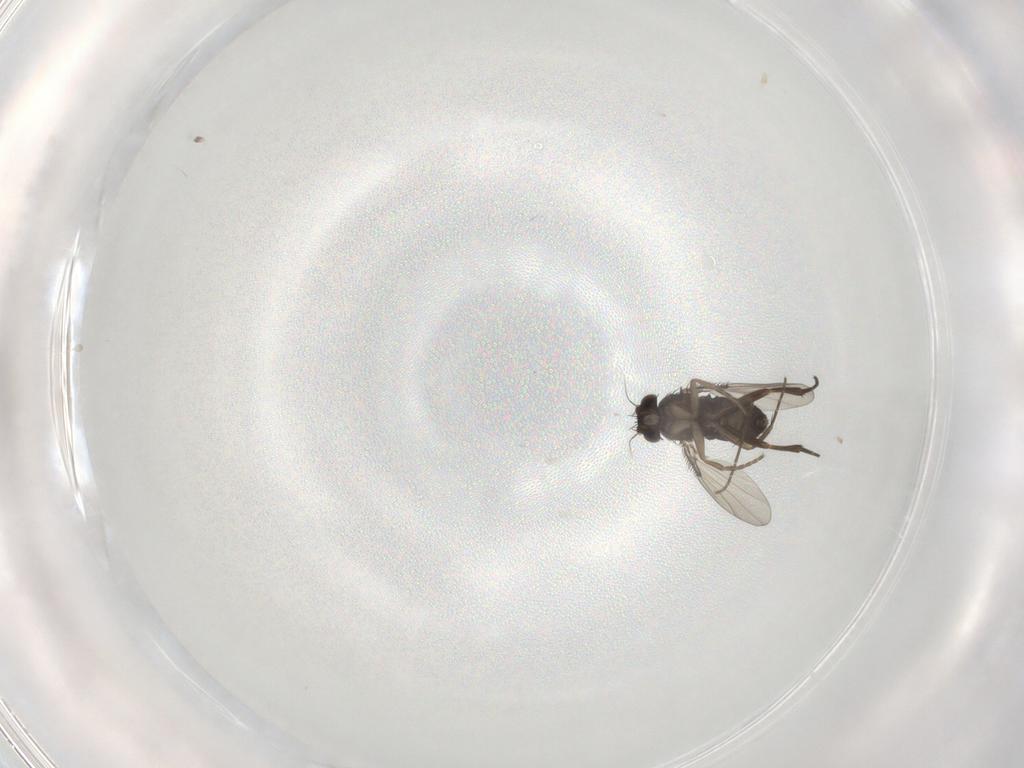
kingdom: Animalia
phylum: Arthropoda
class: Insecta
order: Diptera
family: Phoridae
